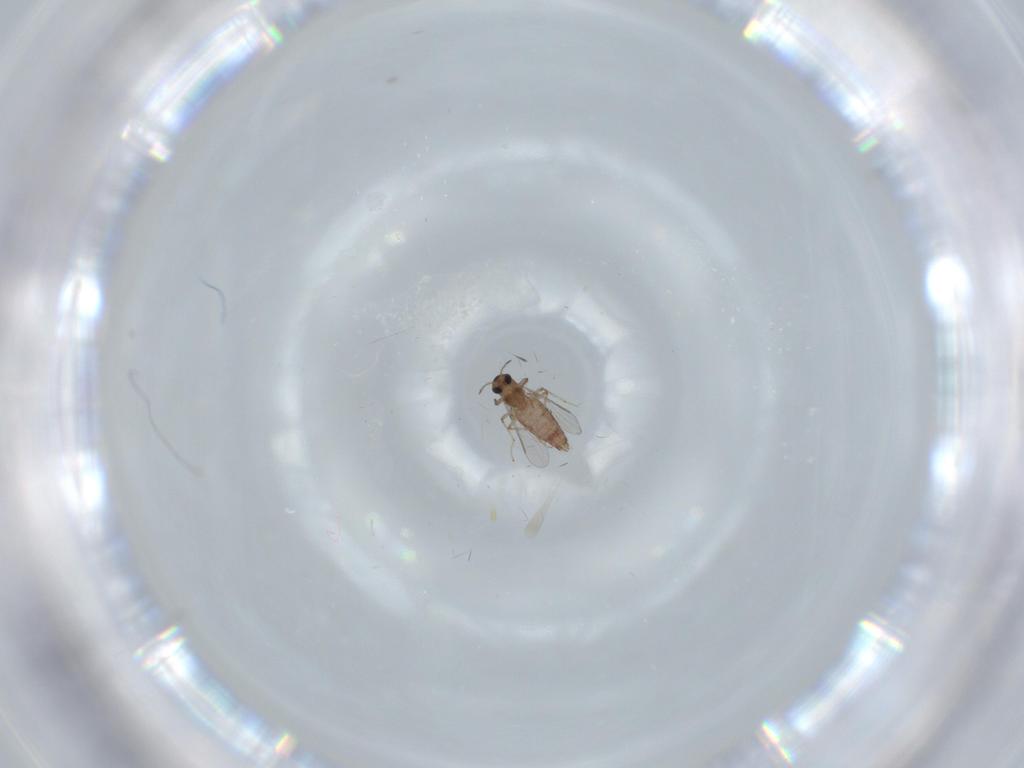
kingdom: Animalia
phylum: Arthropoda
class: Insecta
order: Diptera
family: Chironomidae
